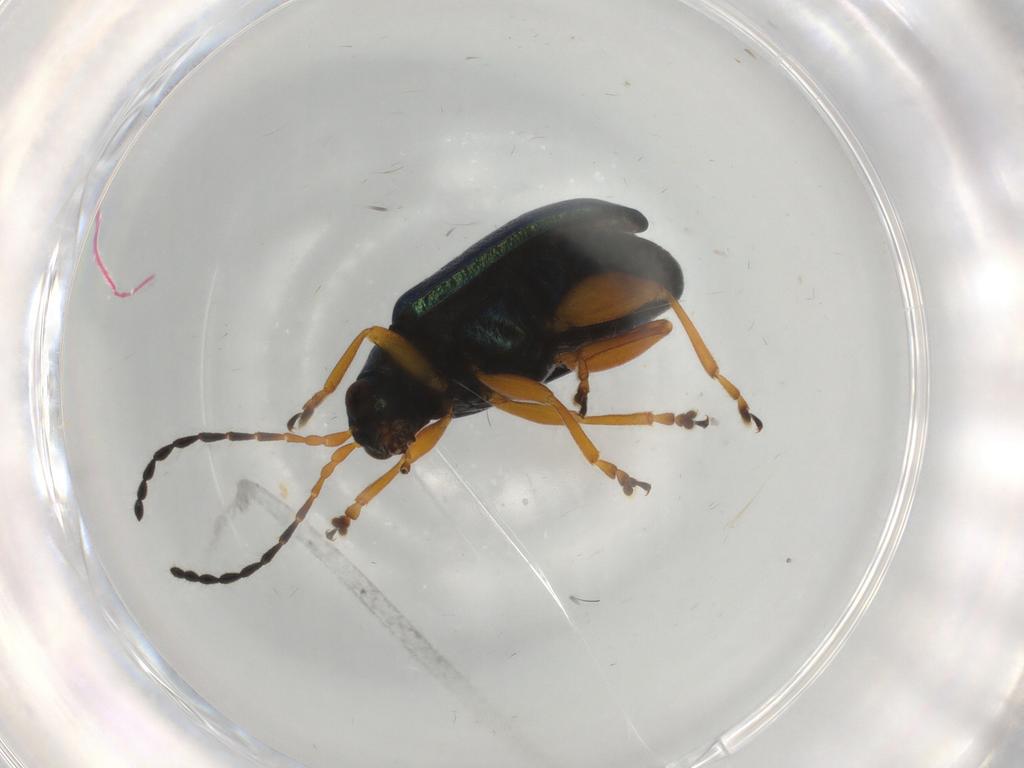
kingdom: Animalia
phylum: Arthropoda
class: Insecta
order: Coleoptera
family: Chrysomelidae
